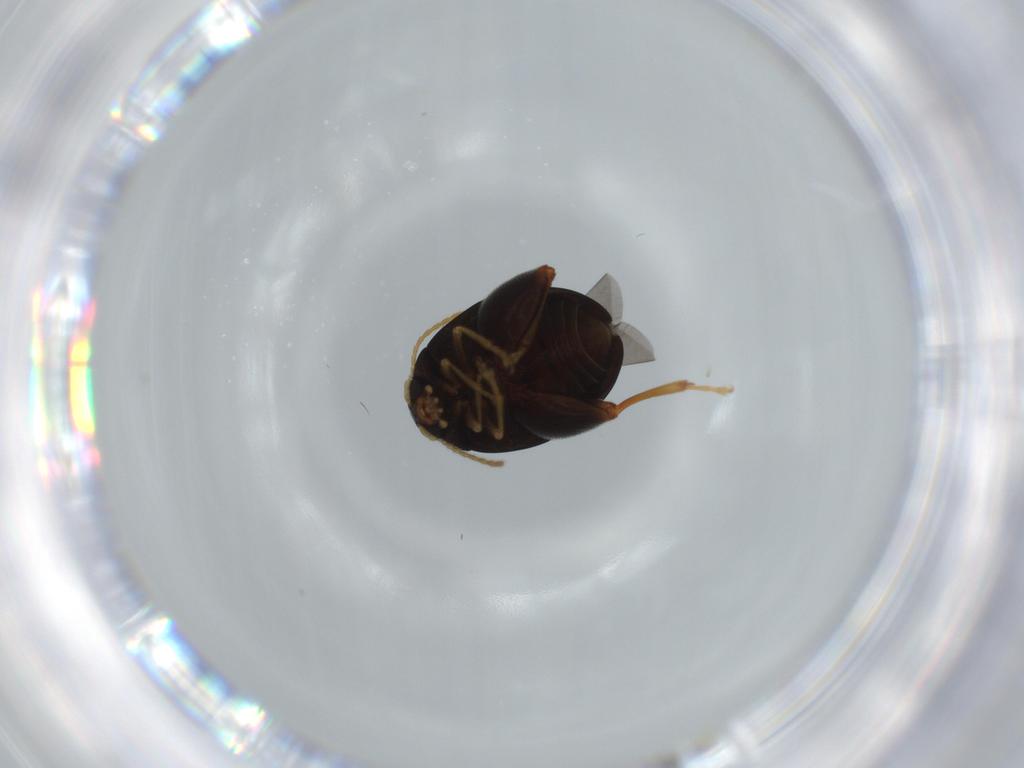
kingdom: Animalia
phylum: Arthropoda
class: Insecta
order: Coleoptera
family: Chrysomelidae
